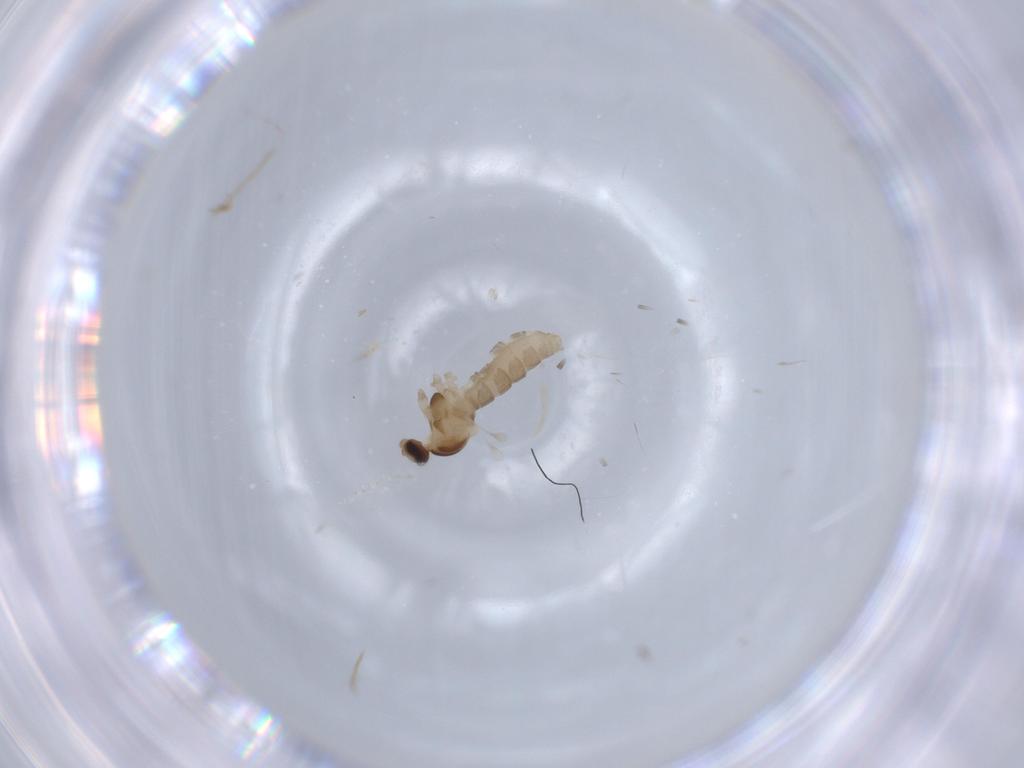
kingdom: Animalia
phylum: Arthropoda
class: Insecta
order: Diptera
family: Cecidomyiidae
